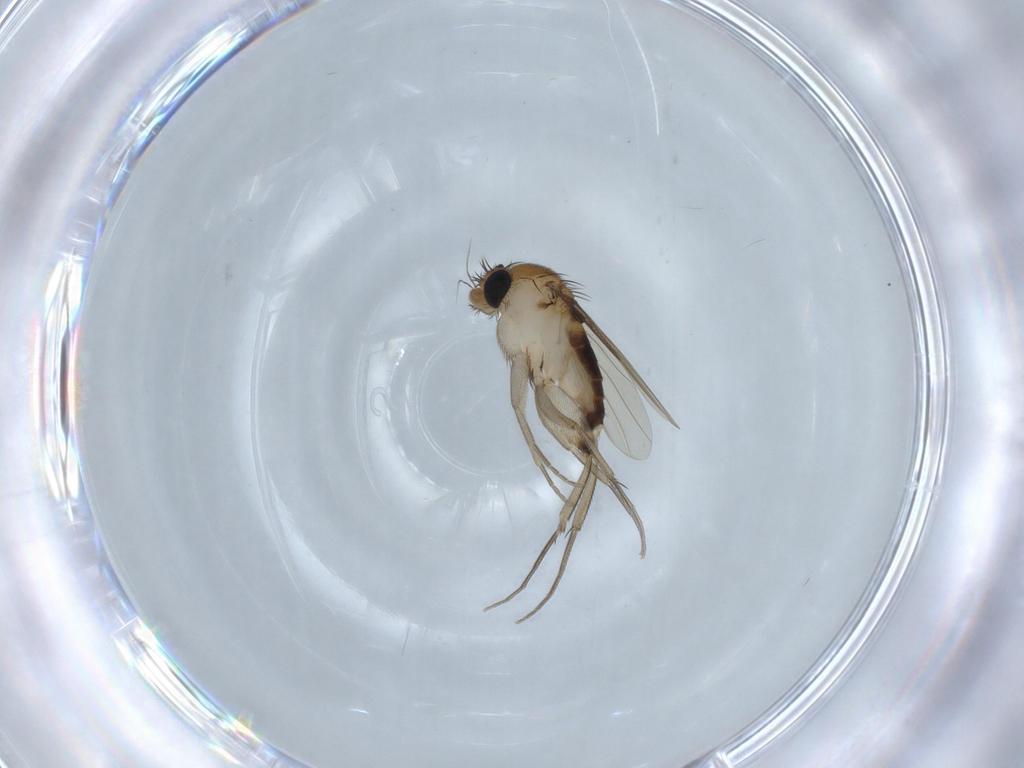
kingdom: Animalia
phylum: Arthropoda
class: Insecta
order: Diptera
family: Phoridae
